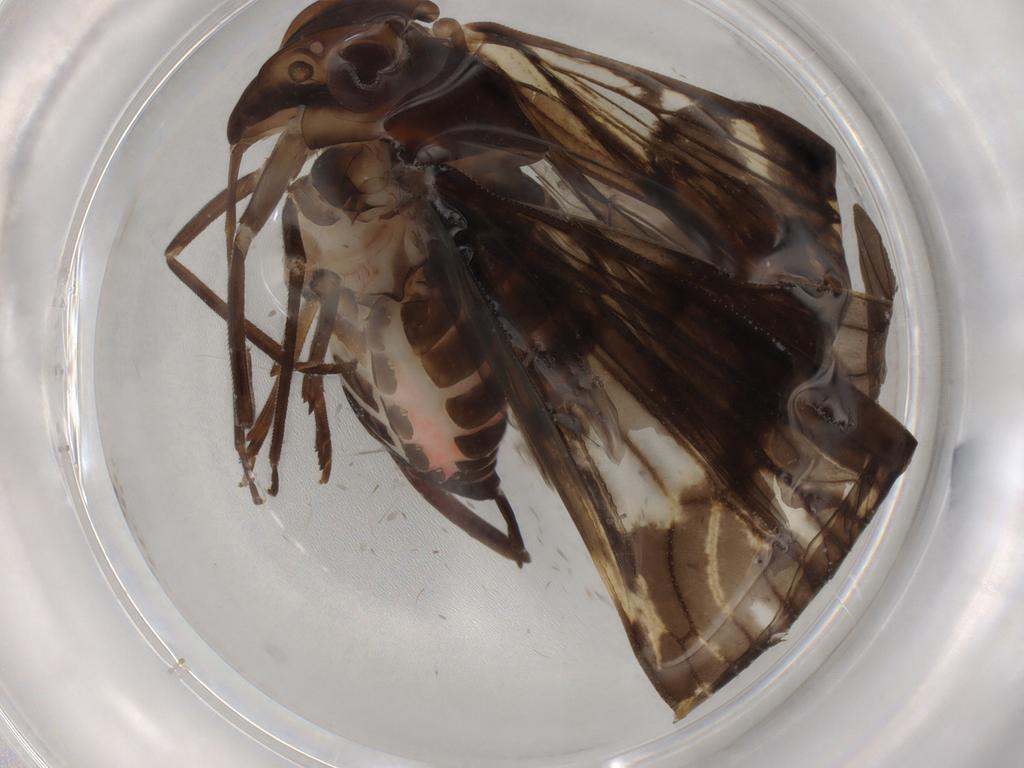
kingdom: Animalia
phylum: Arthropoda
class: Insecta
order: Hemiptera
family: Cixiidae
